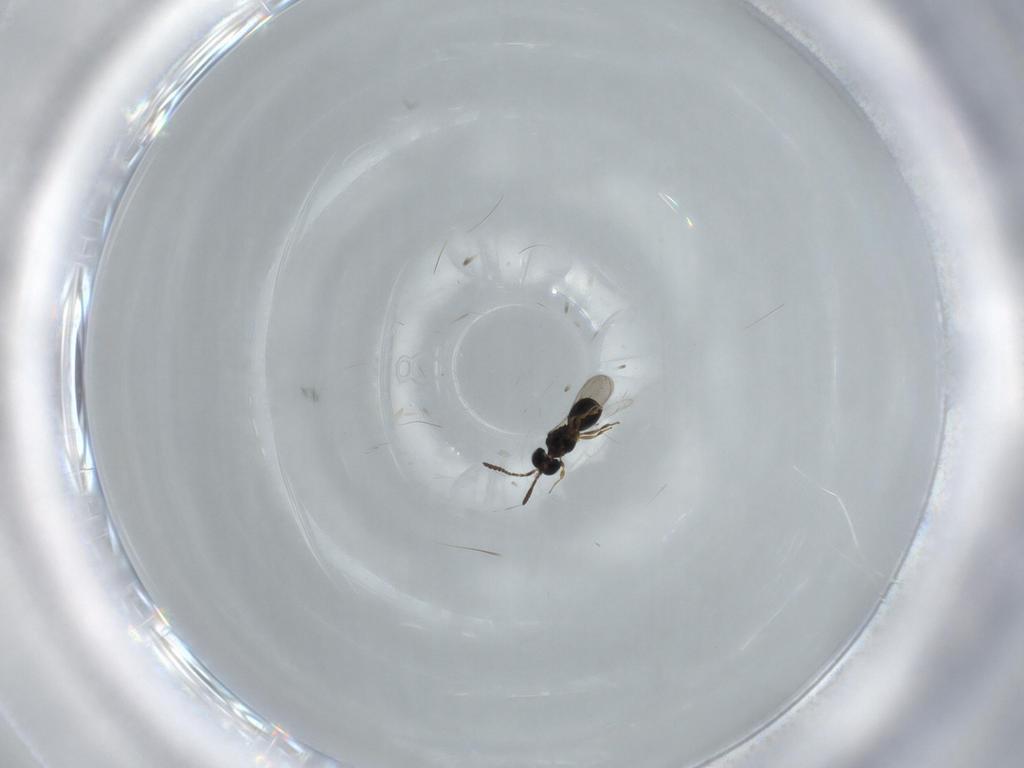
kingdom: Animalia
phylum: Arthropoda
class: Insecta
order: Hymenoptera
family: Scelionidae
